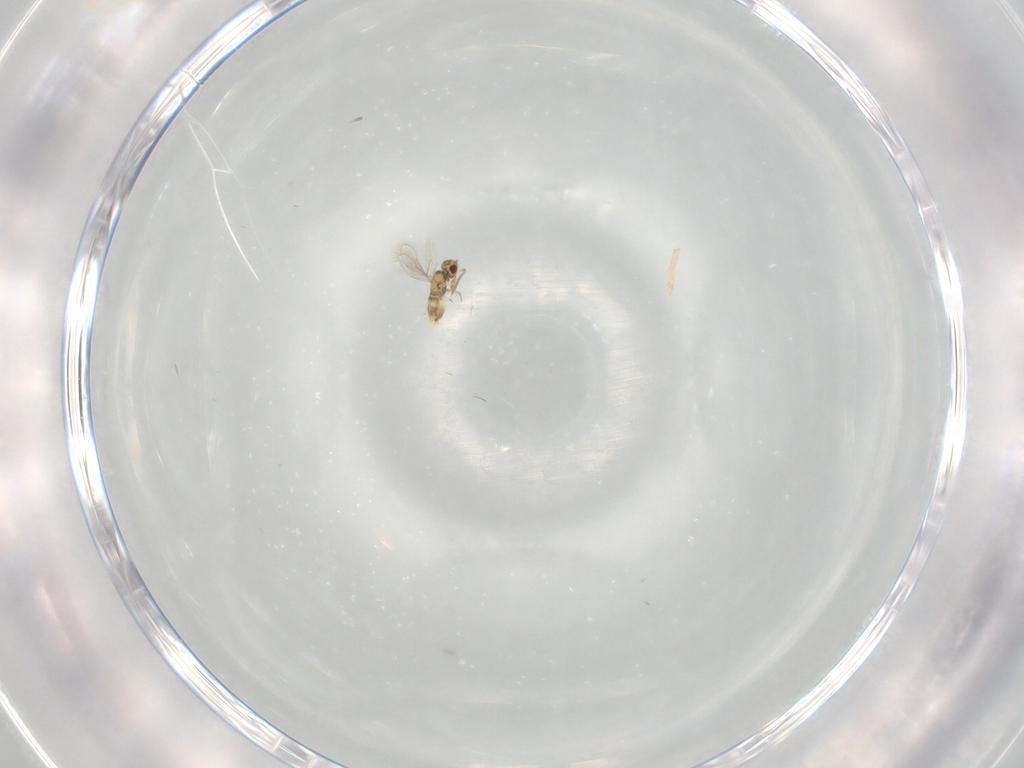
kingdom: Animalia
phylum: Arthropoda
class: Insecta
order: Hymenoptera
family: Aphelinidae
